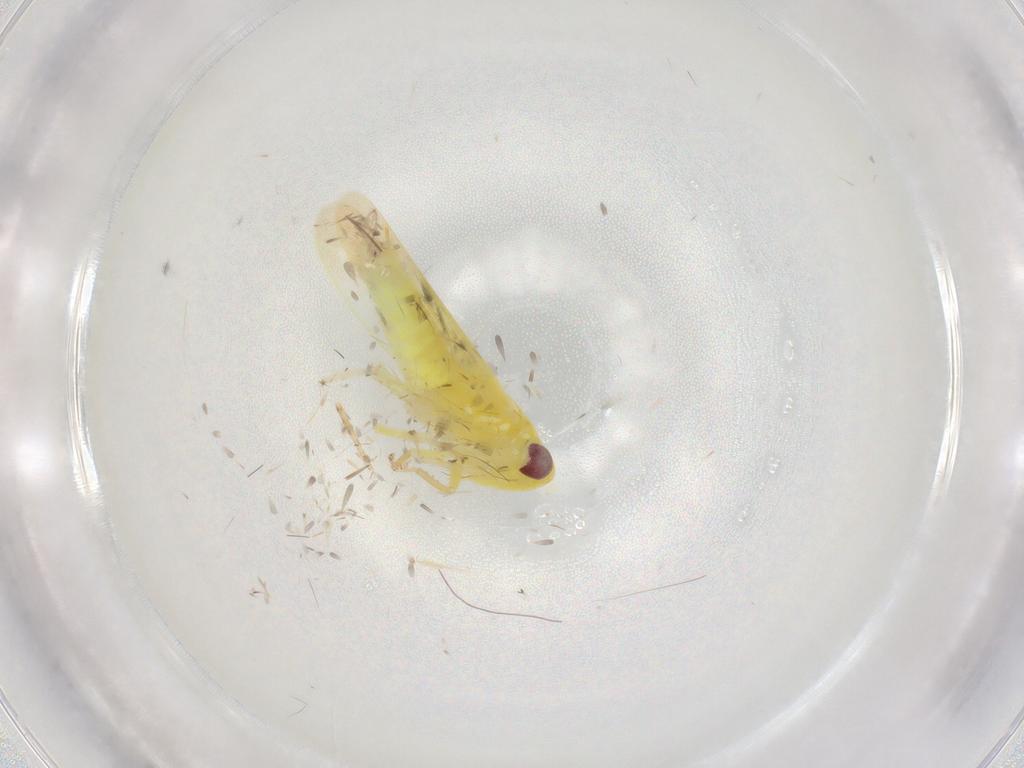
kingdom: Animalia
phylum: Arthropoda
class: Insecta
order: Hemiptera
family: Cicadellidae
